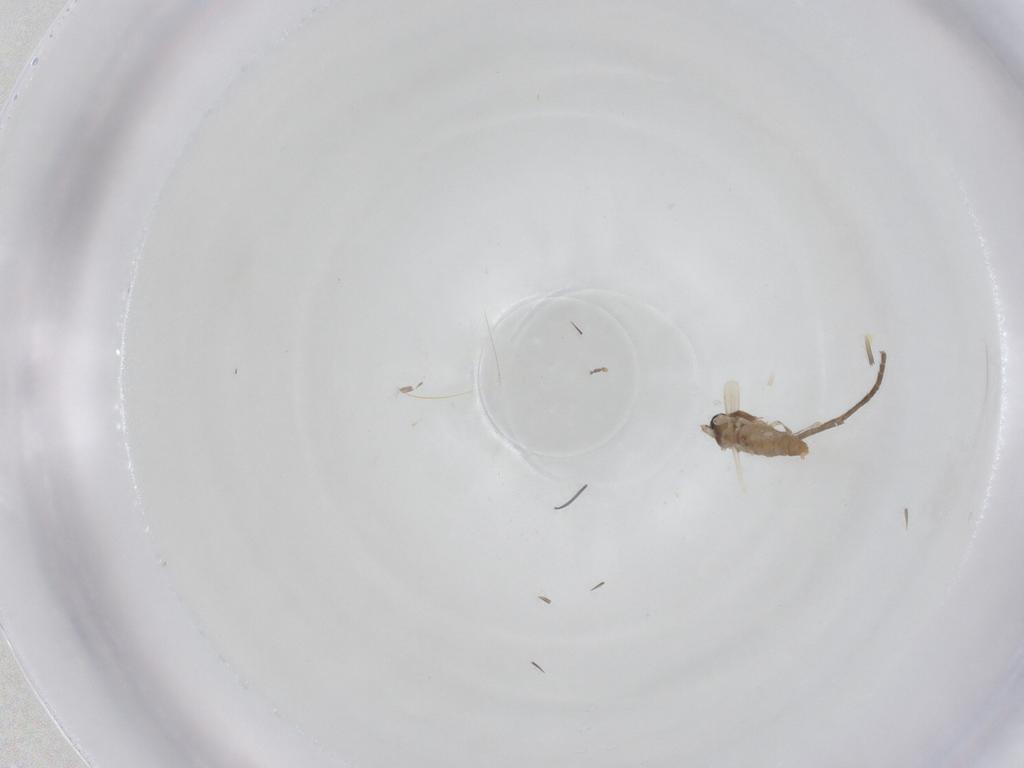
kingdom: Animalia
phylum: Arthropoda
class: Insecta
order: Diptera
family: Cecidomyiidae
